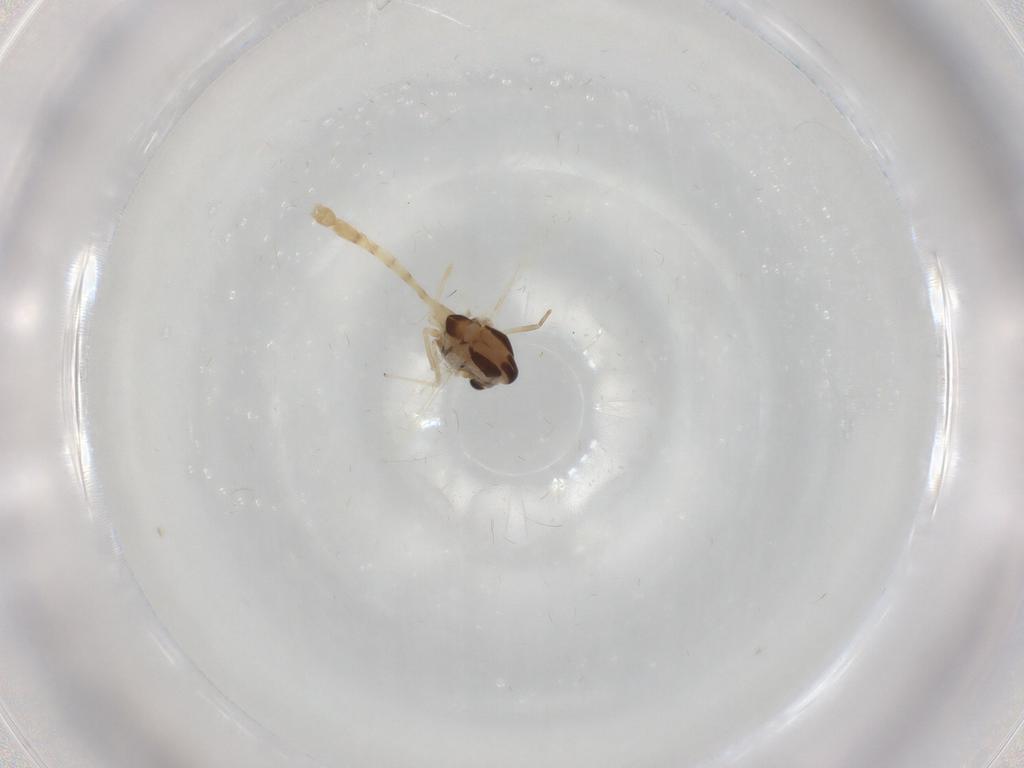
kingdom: Animalia
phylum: Arthropoda
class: Insecta
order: Diptera
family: Chironomidae
